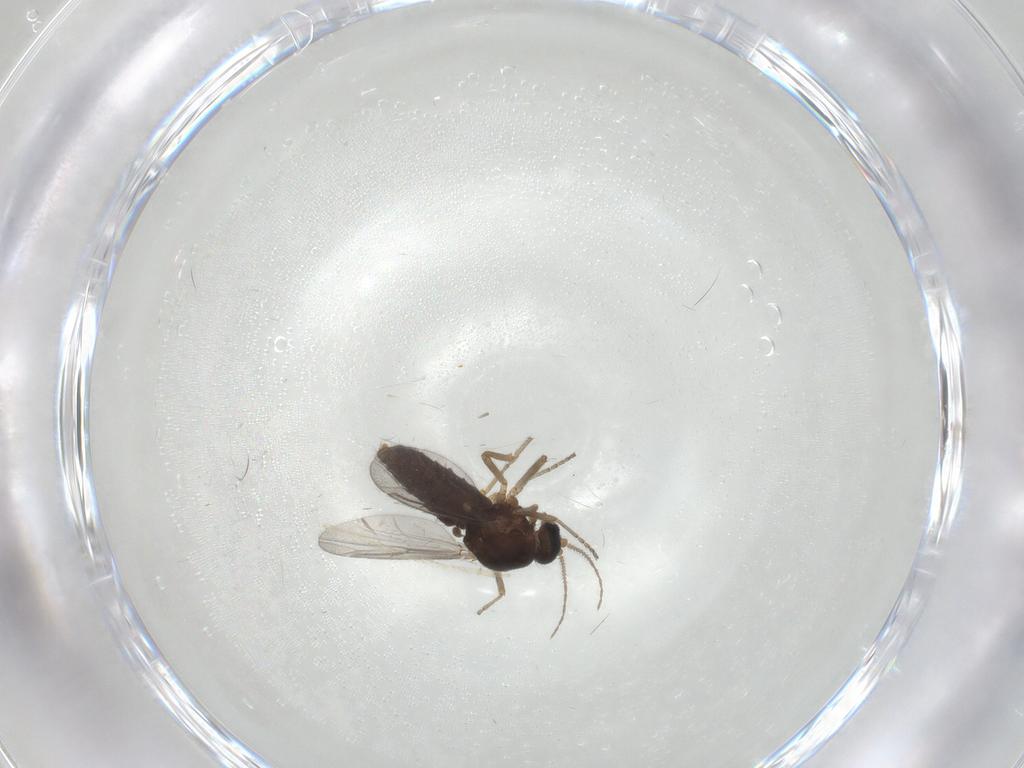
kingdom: Animalia
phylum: Arthropoda
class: Insecta
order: Diptera
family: Ceratopogonidae
